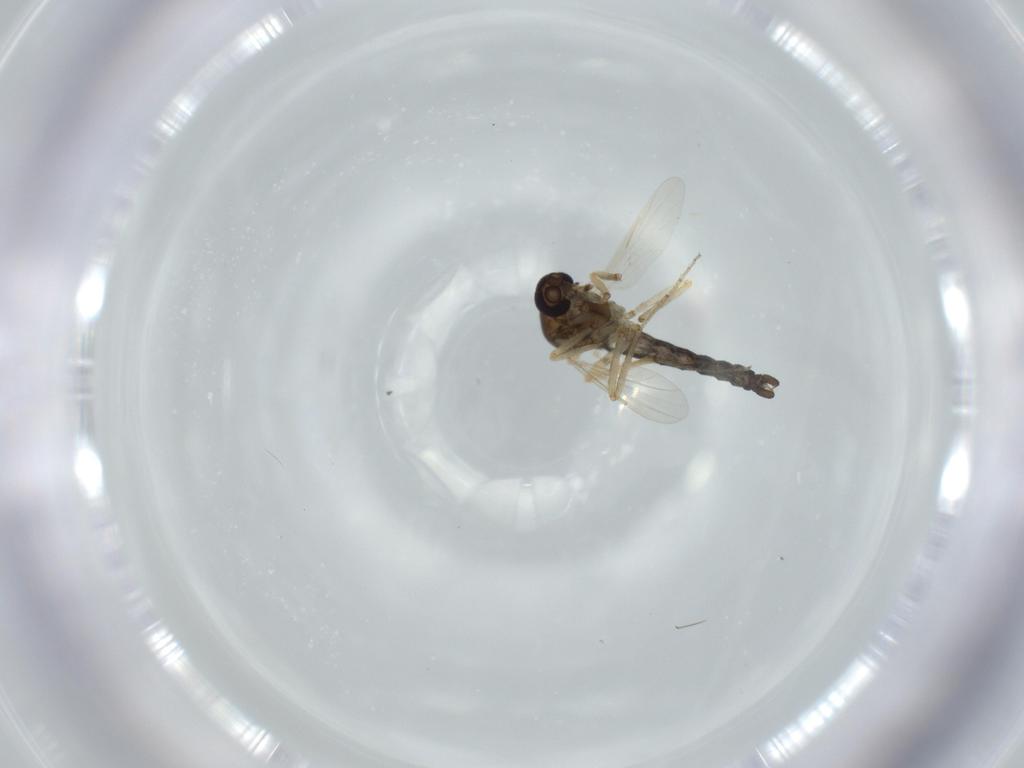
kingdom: Animalia
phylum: Arthropoda
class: Insecta
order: Diptera
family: Ceratopogonidae
